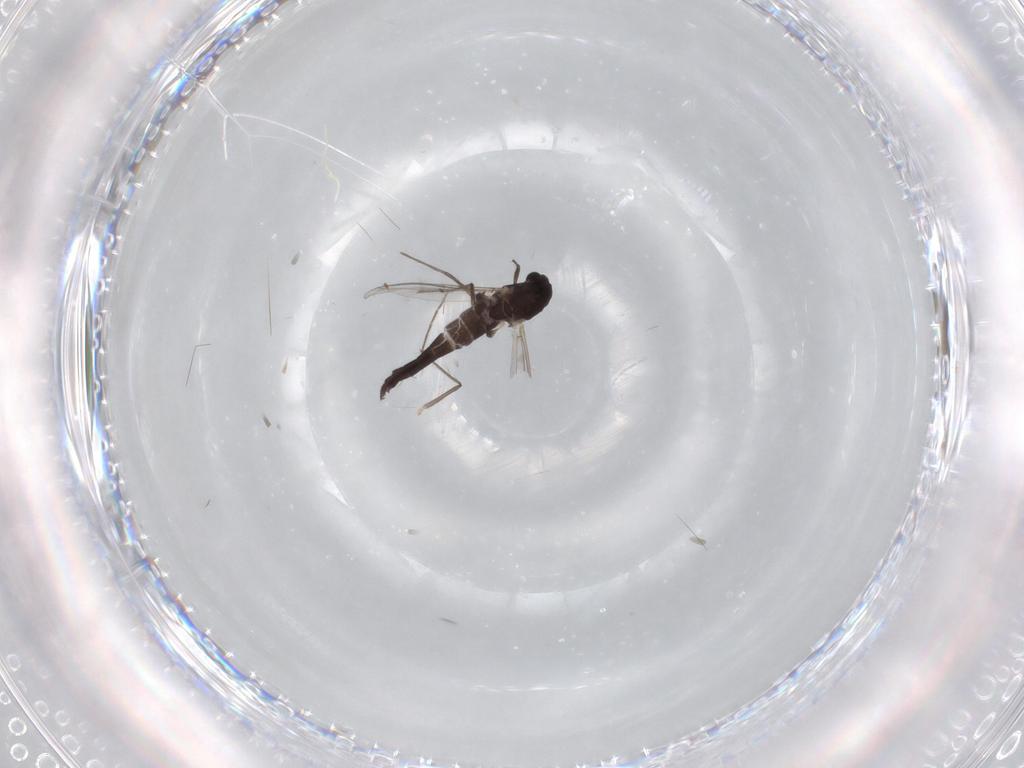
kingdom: Animalia
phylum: Arthropoda
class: Insecta
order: Diptera
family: Chironomidae
